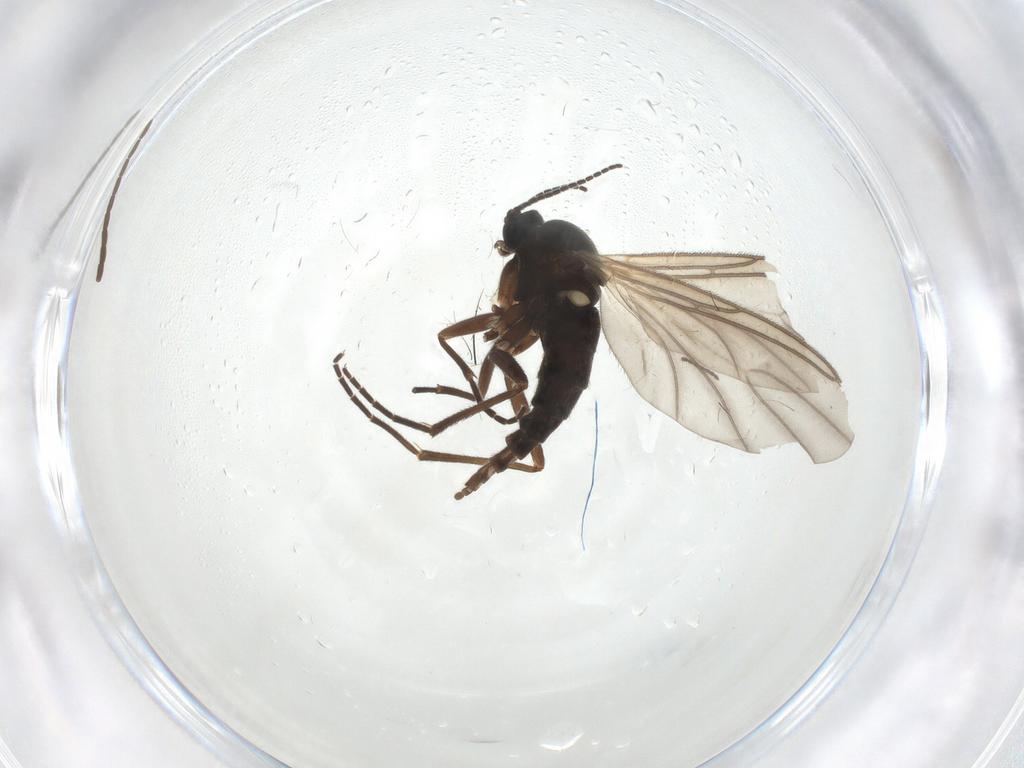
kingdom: Animalia
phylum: Arthropoda
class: Insecta
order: Diptera
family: Sciaridae
